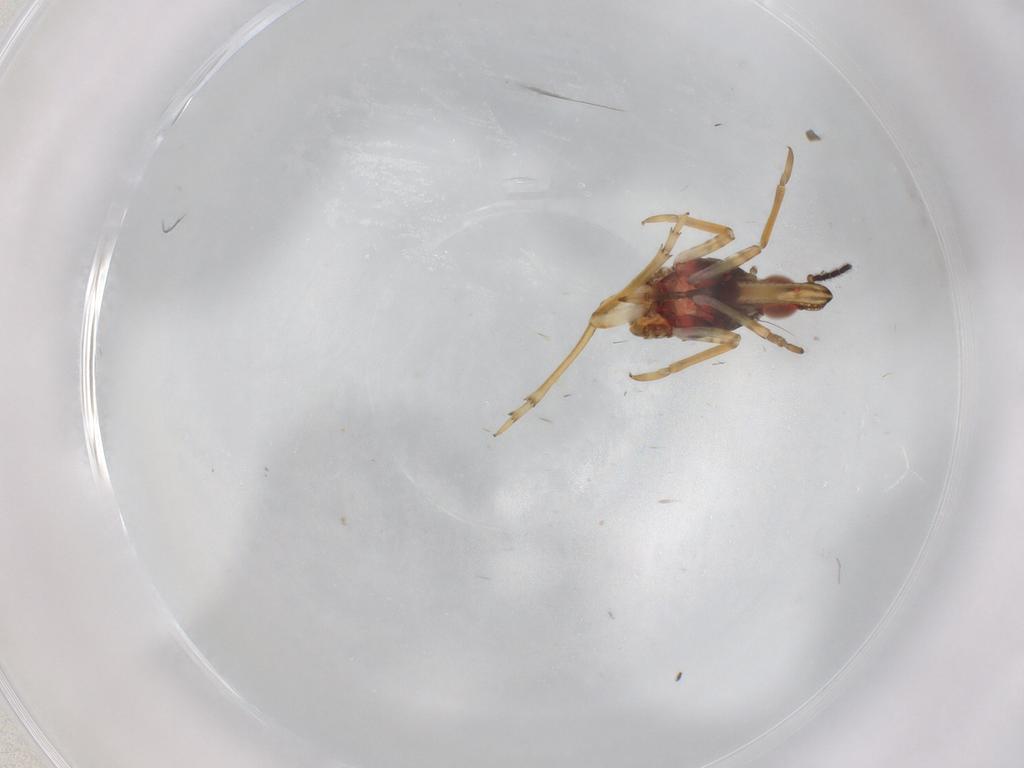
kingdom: Animalia
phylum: Arthropoda
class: Insecta
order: Hemiptera
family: Fulgoroidea_incertae_sedis
